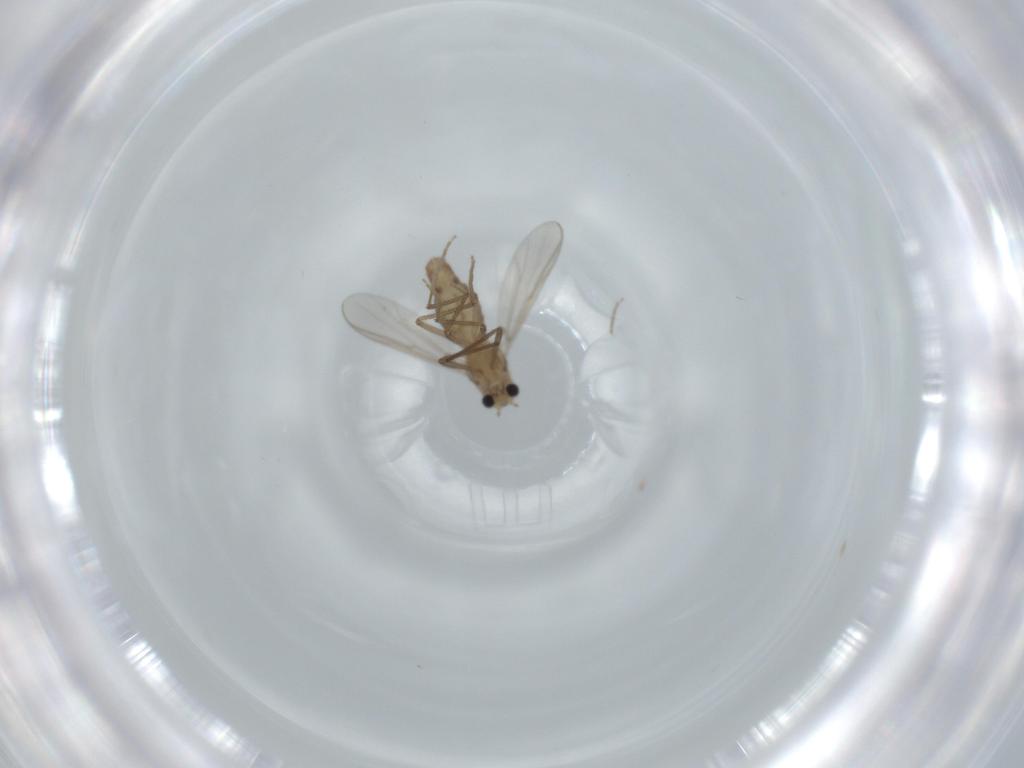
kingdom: Animalia
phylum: Arthropoda
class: Insecta
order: Diptera
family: Chironomidae
